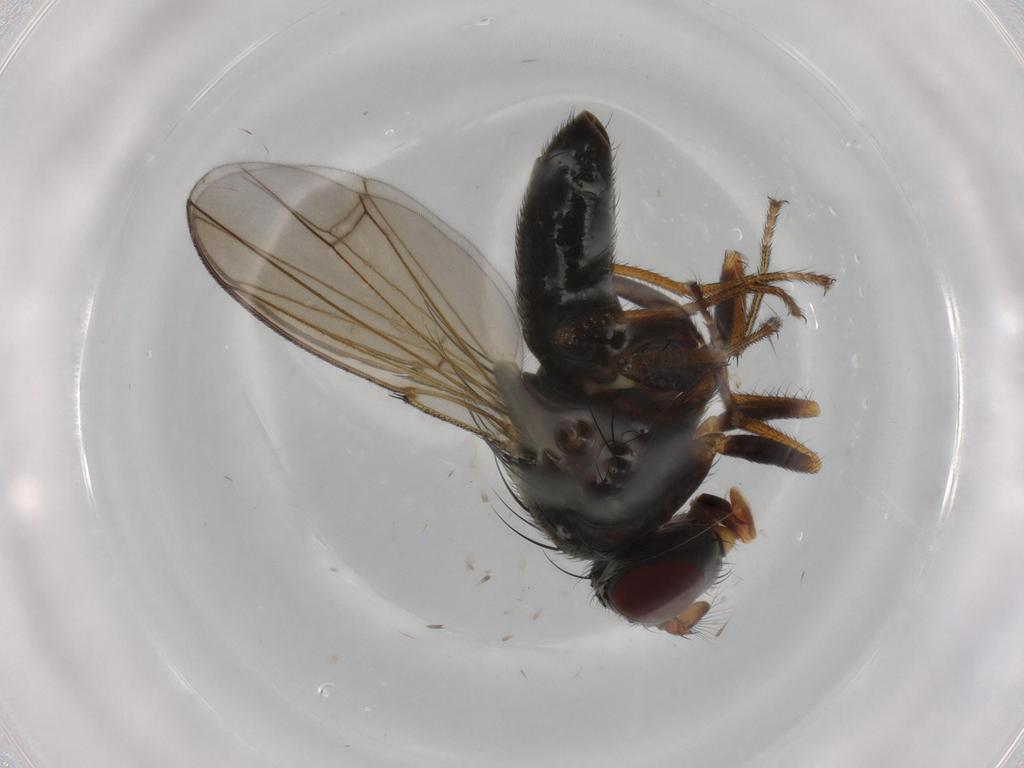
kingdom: Animalia
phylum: Arthropoda
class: Insecta
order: Diptera
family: Ephydridae
